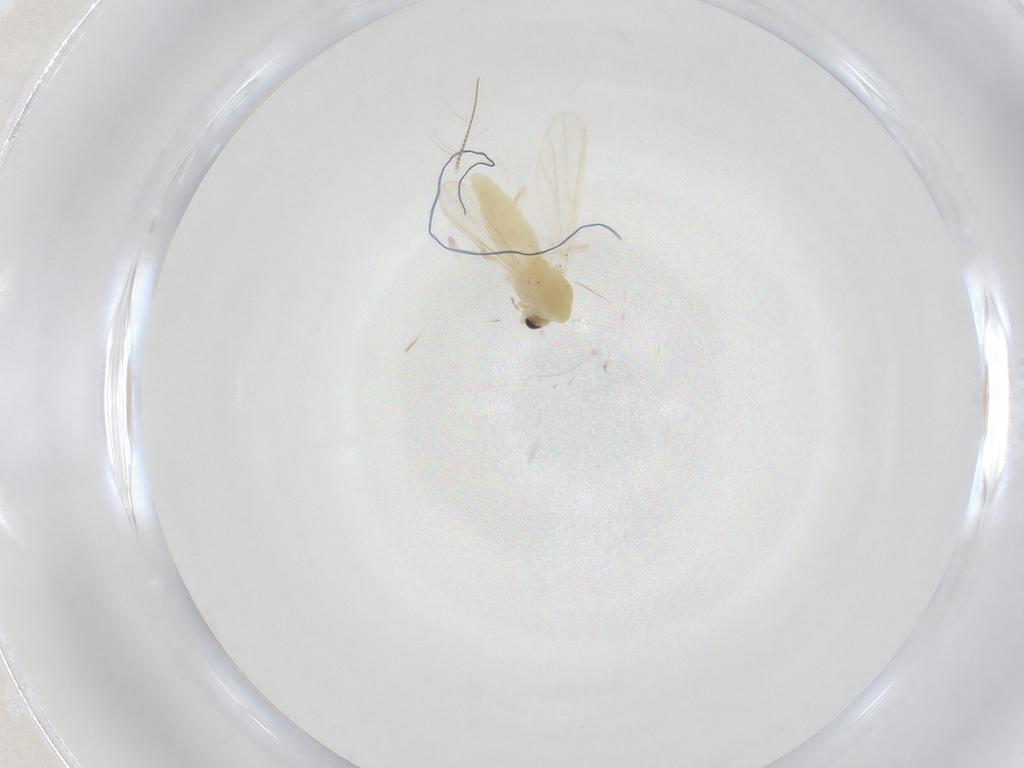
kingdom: Animalia
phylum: Arthropoda
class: Insecta
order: Diptera
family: Chironomidae
